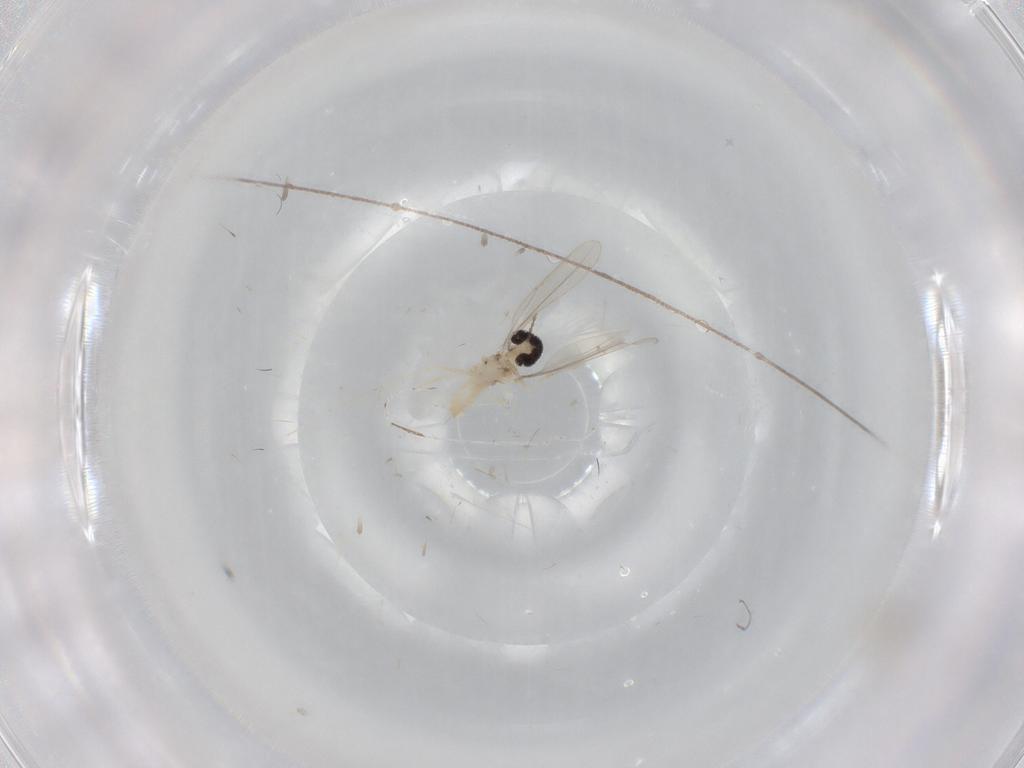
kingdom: Animalia
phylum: Arthropoda
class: Insecta
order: Diptera
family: Cecidomyiidae
